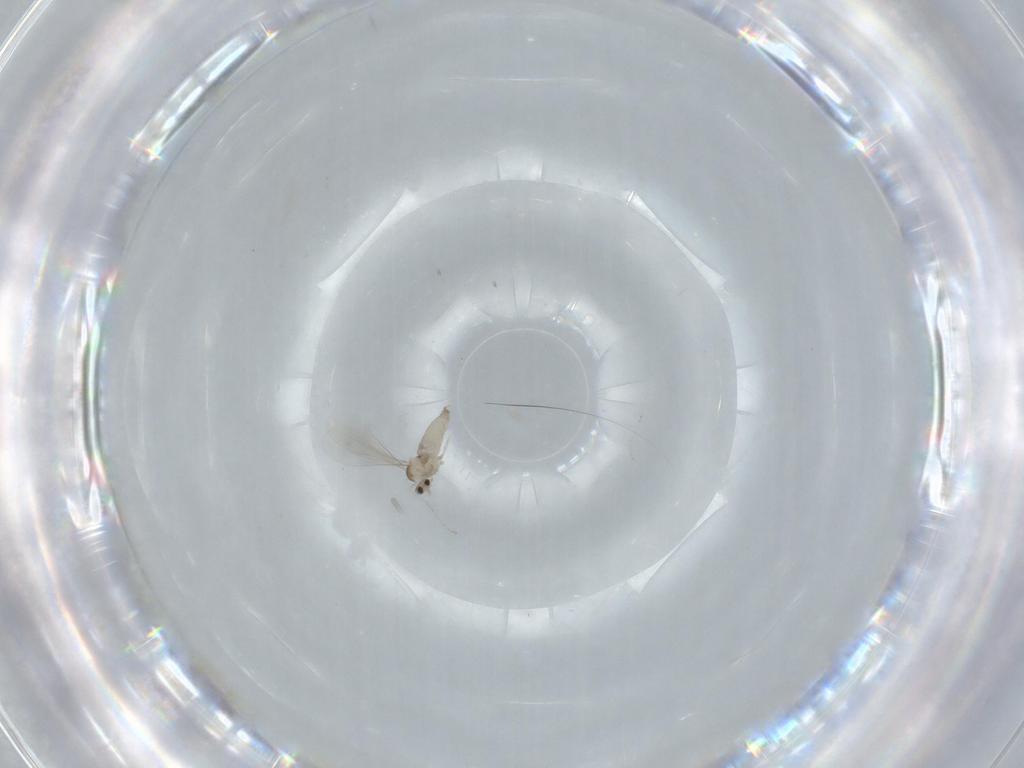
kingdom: Animalia
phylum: Arthropoda
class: Insecta
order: Diptera
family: Cecidomyiidae
